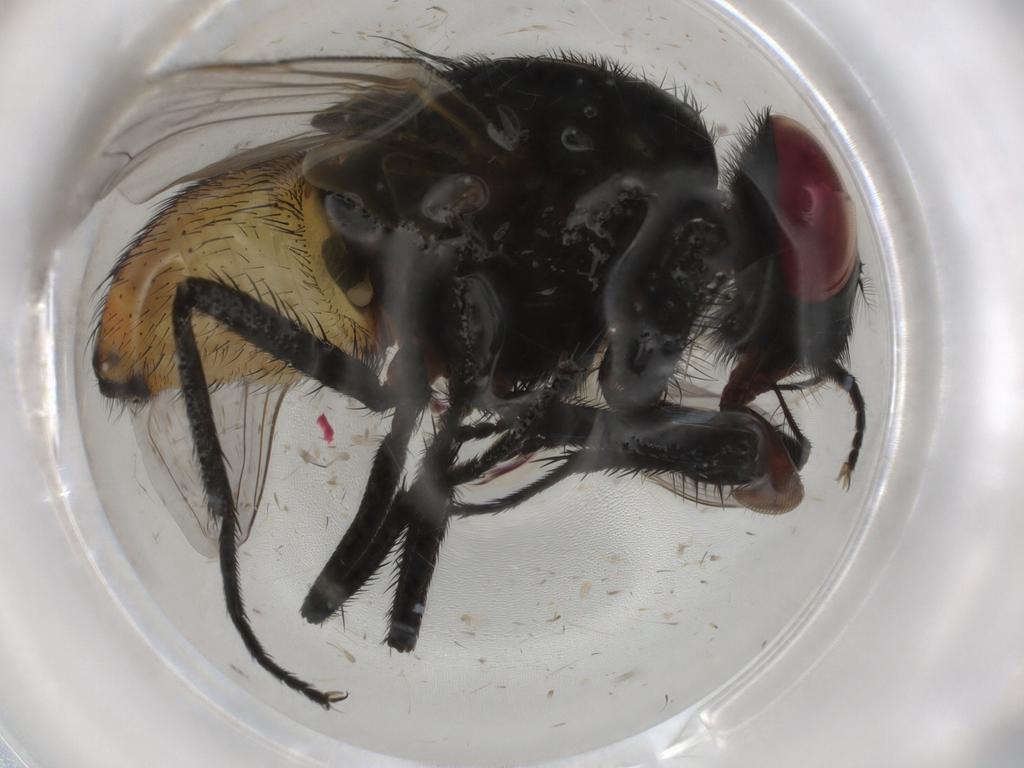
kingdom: Animalia
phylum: Arthropoda
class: Insecta
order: Diptera
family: Glossinidae
